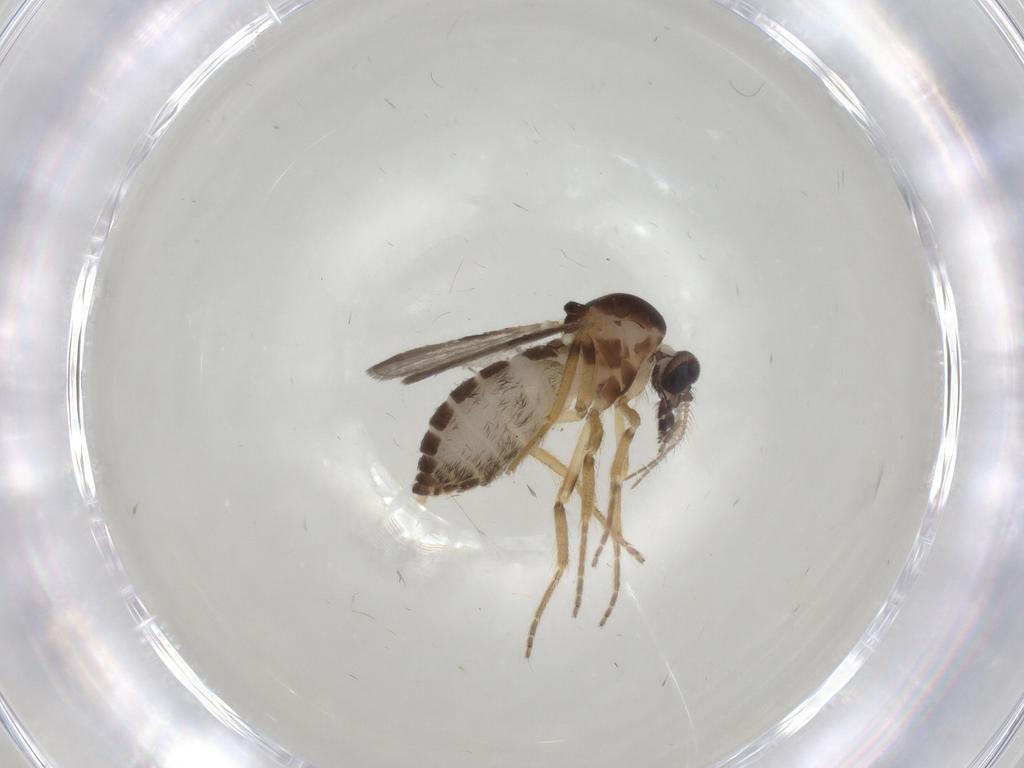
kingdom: Animalia
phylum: Arthropoda
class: Insecta
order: Diptera
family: Ceratopogonidae
